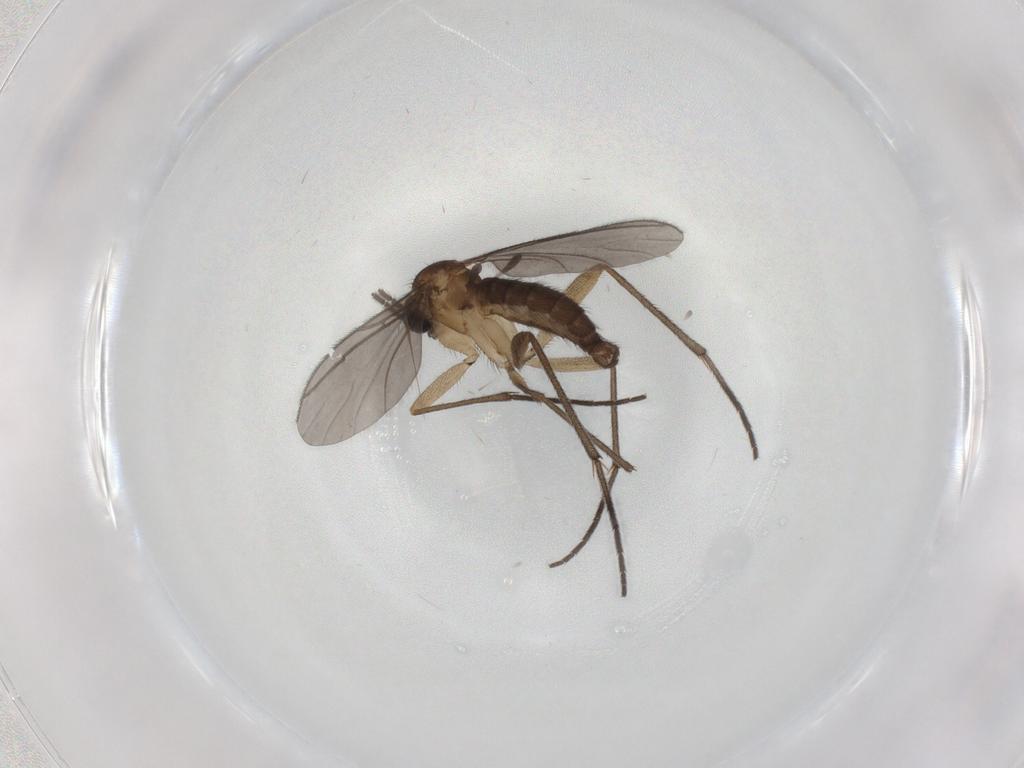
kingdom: Animalia
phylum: Arthropoda
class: Insecta
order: Diptera
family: Sciaridae
